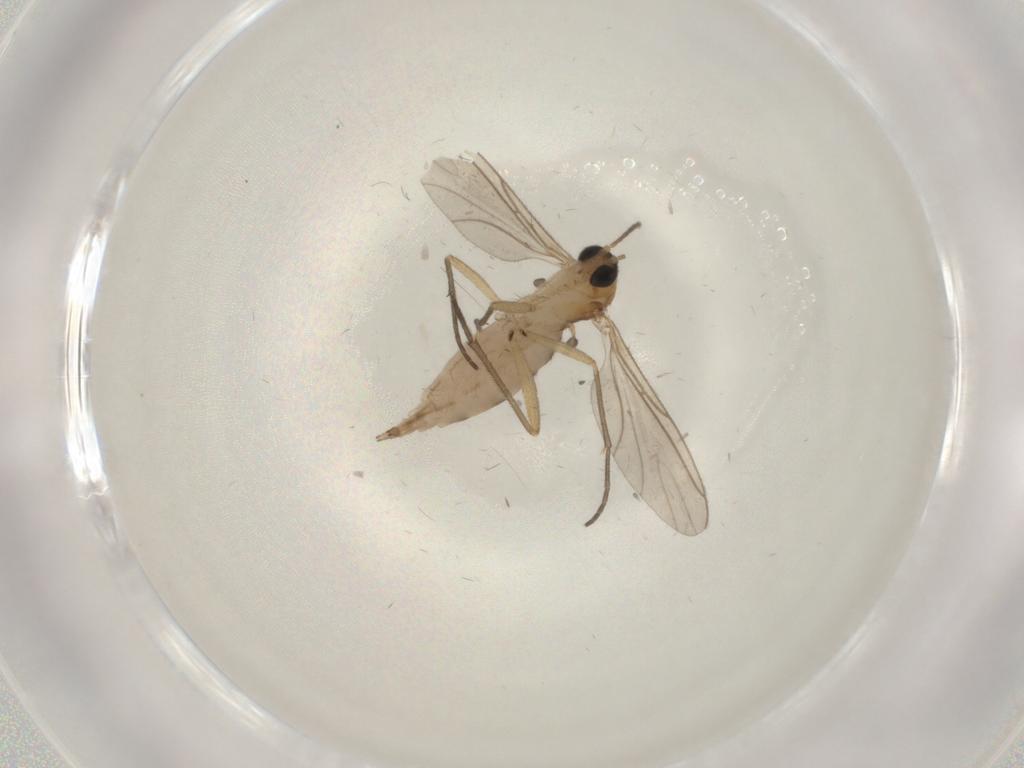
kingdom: Animalia
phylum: Arthropoda
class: Insecta
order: Diptera
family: Sciaridae
